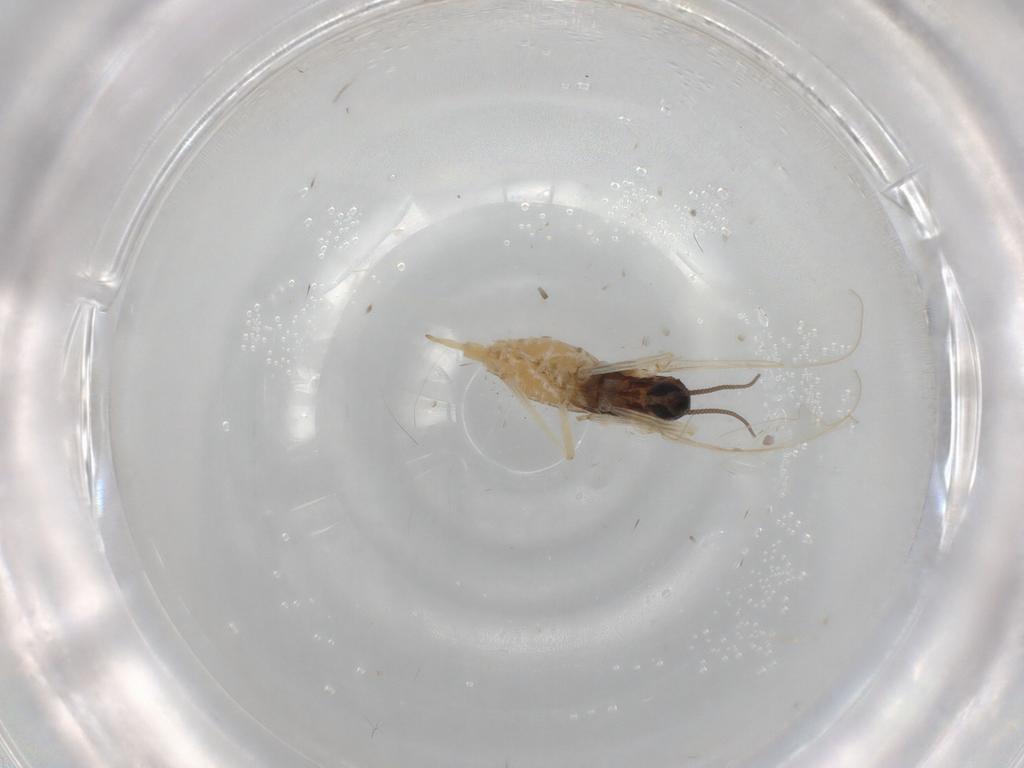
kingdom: Animalia
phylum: Arthropoda
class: Insecta
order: Diptera
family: Cecidomyiidae
